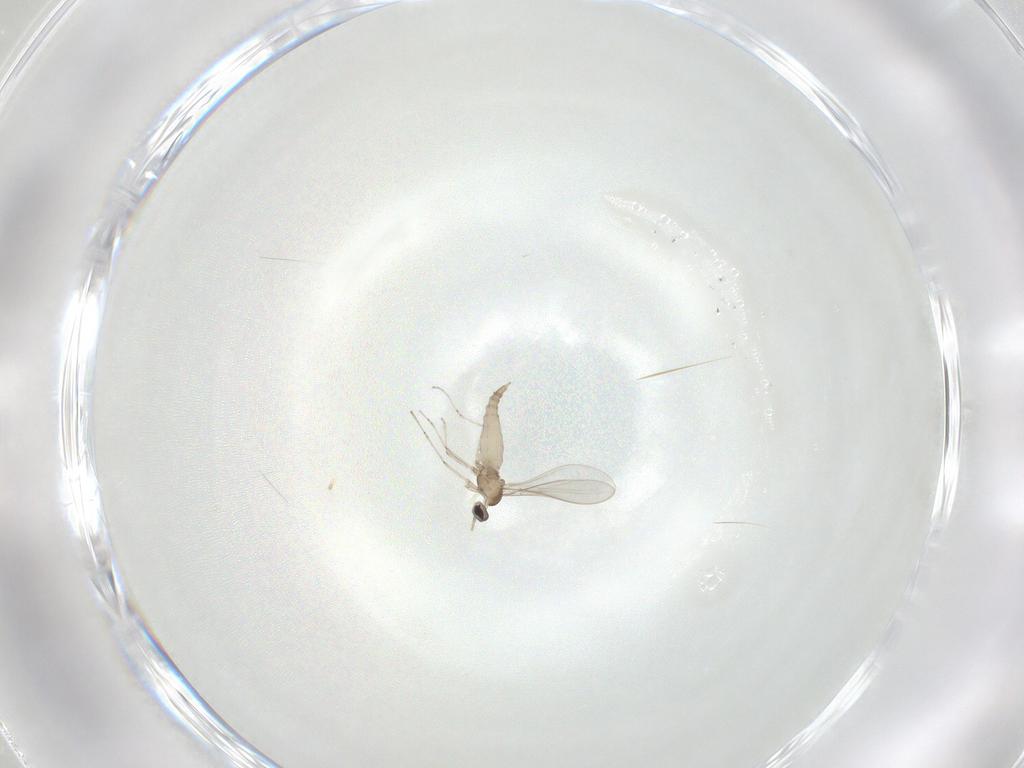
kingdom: Animalia
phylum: Arthropoda
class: Insecta
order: Diptera
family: Cecidomyiidae
